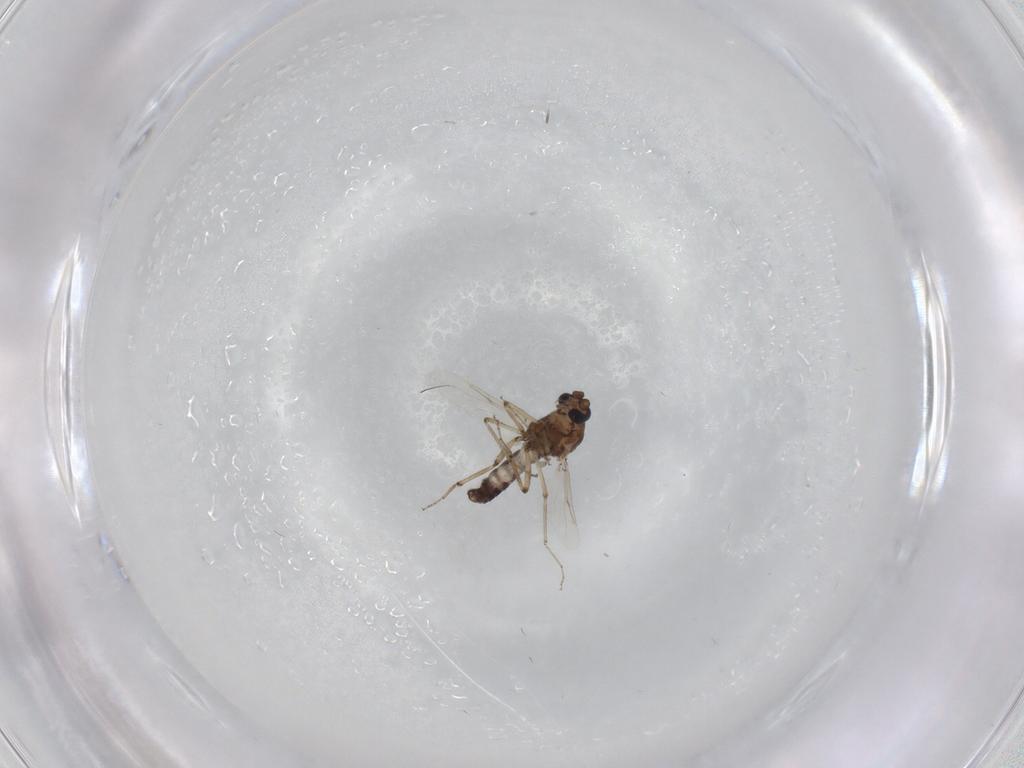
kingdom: Animalia
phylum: Arthropoda
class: Insecta
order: Diptera
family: Ceratopogonidae
